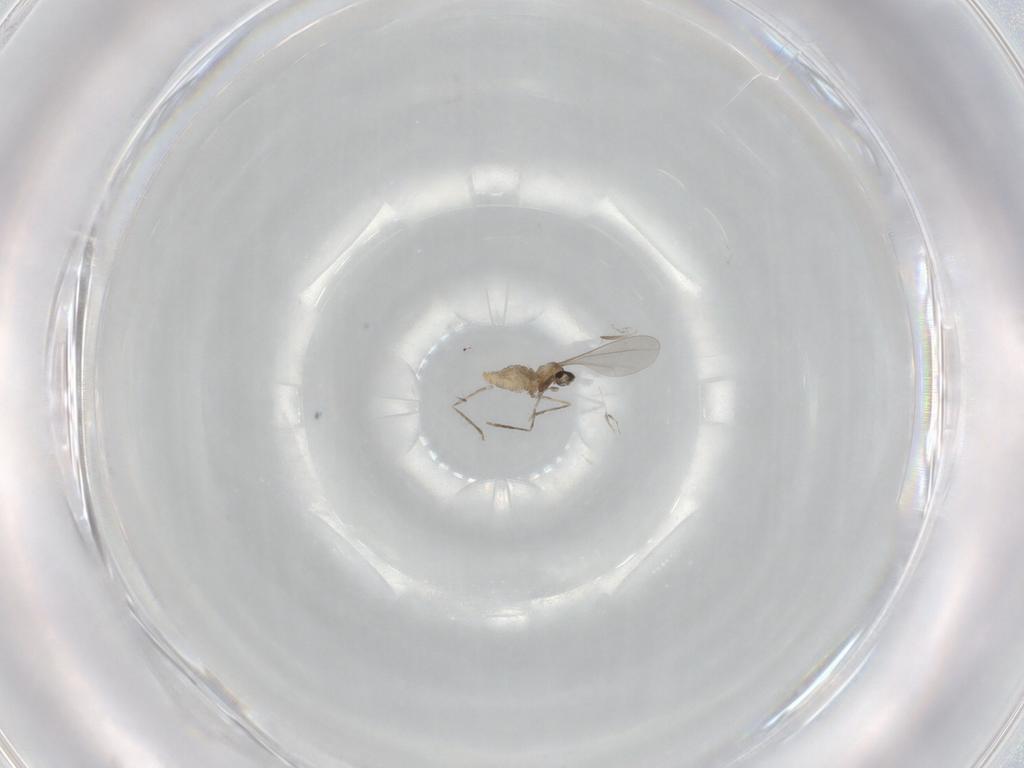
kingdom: Animalia
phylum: Arthropoda
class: Insecta
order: Diptera
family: Cecidomyiidae
